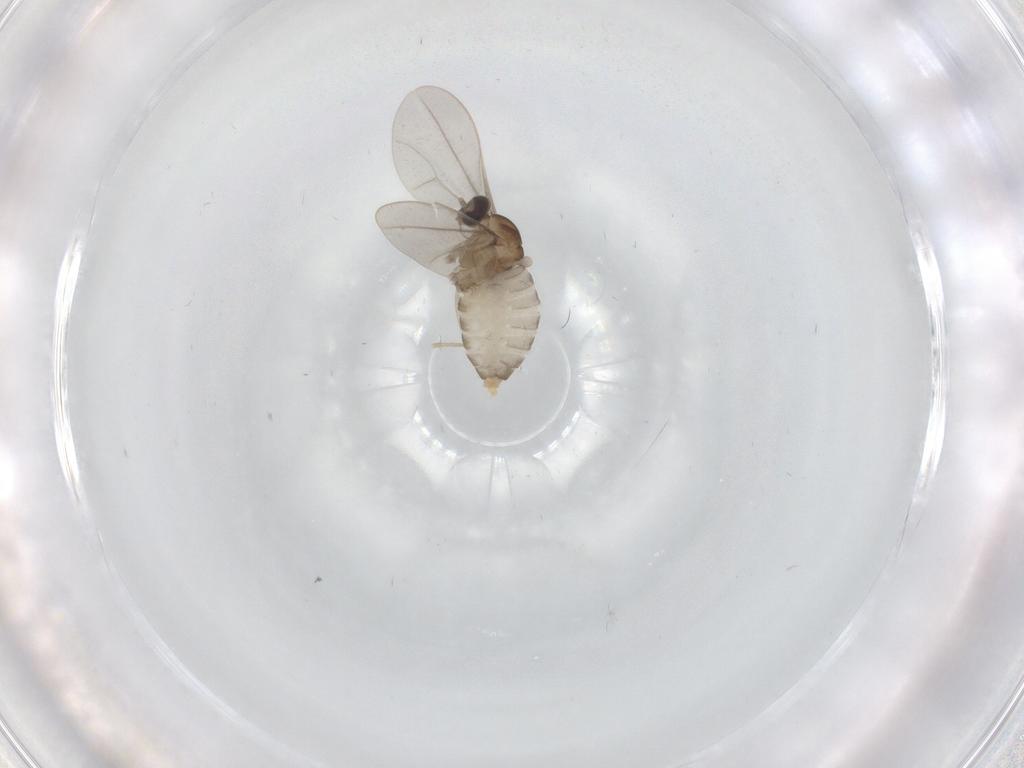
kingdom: Animalia
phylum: Arthropoda
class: Insecta
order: Diptera
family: Cecidomyiidae
